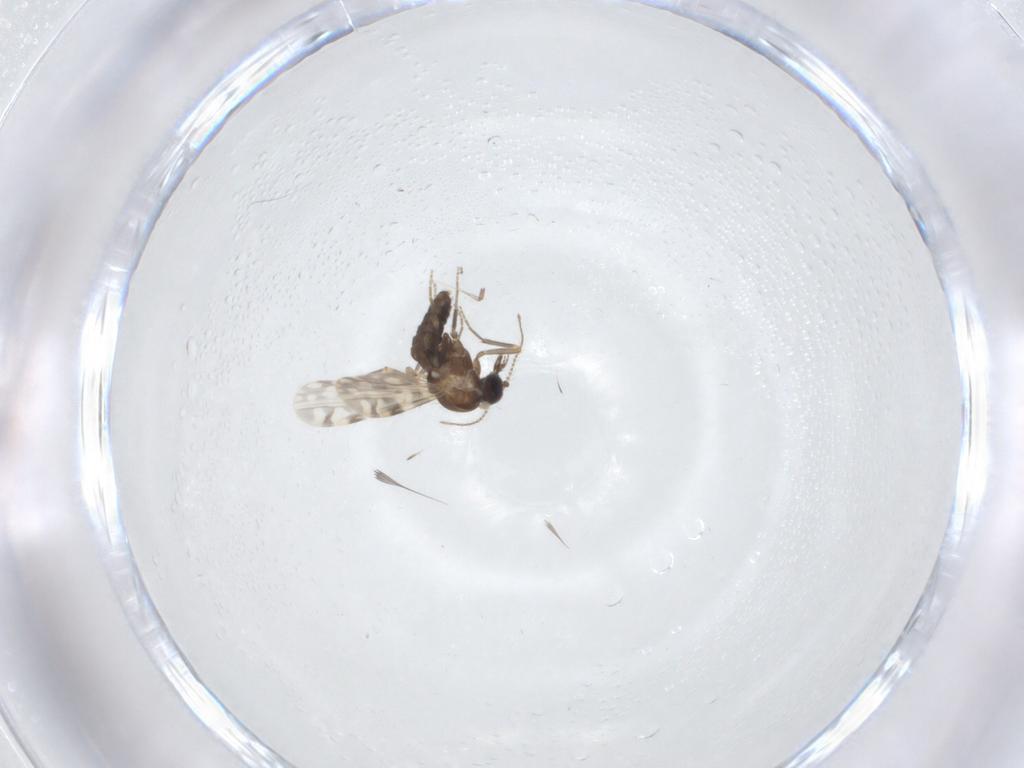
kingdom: Animalia
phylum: Arthropoda
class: Insecta
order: Diptera
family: Ceratopogonidae
